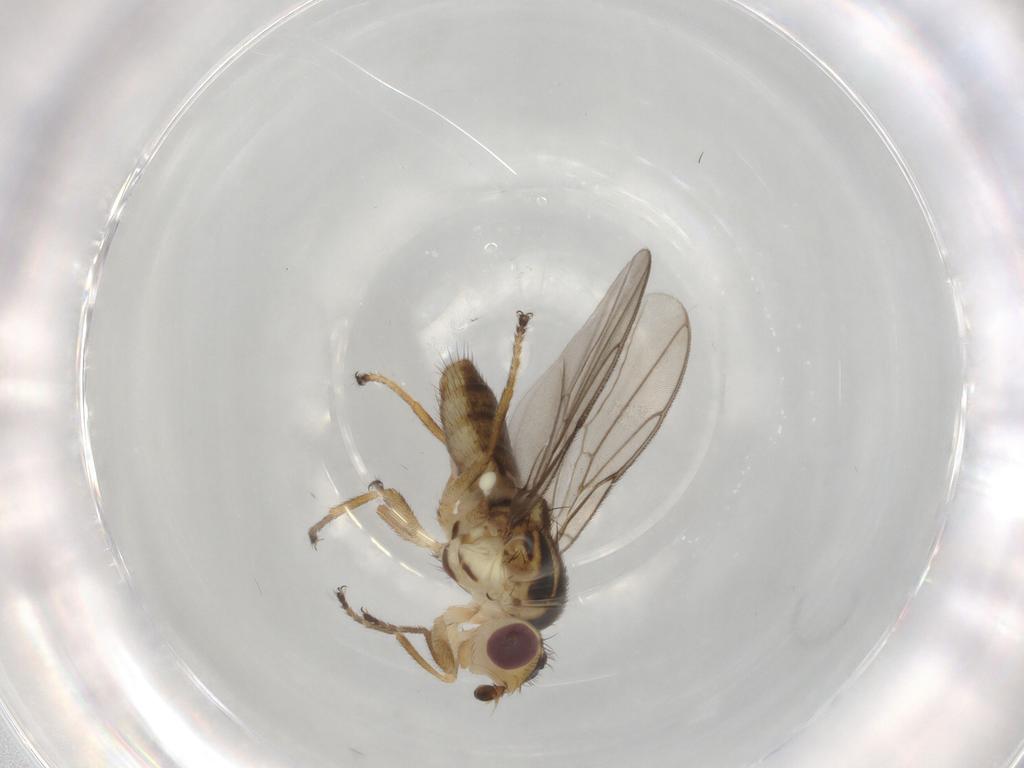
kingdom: Animalia
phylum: Arthropoda
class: Insecta
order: Diptera
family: Chloropidae
